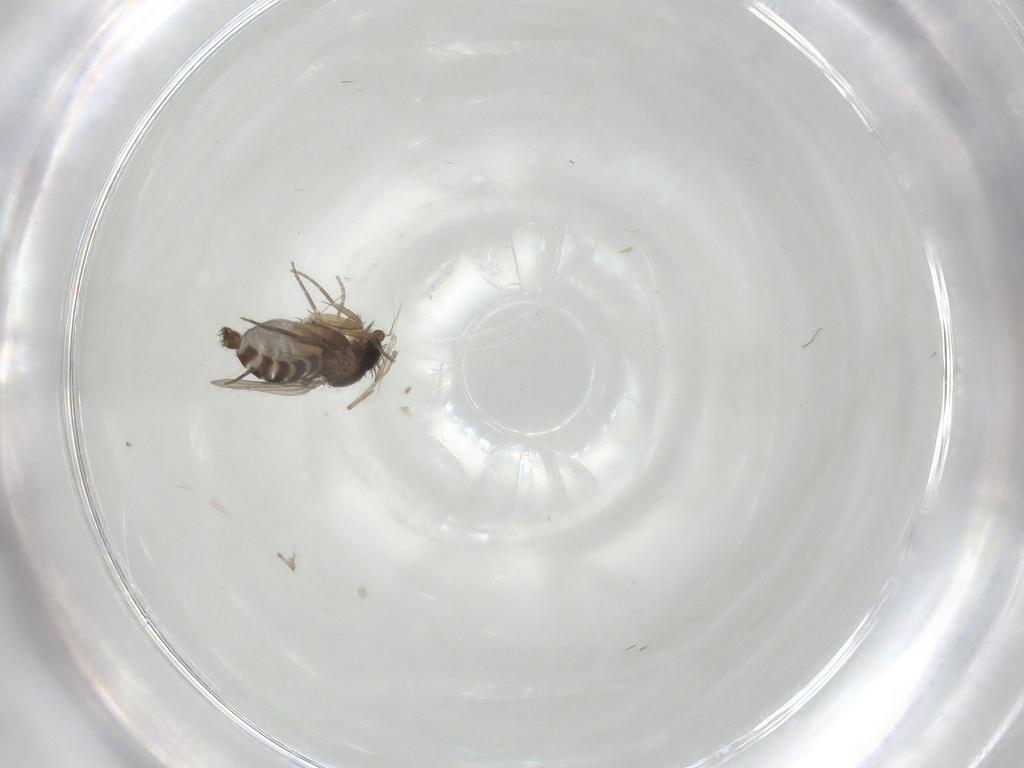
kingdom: Animalia
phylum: Arthropoda
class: Insecta
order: Diptera
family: Phoridae
